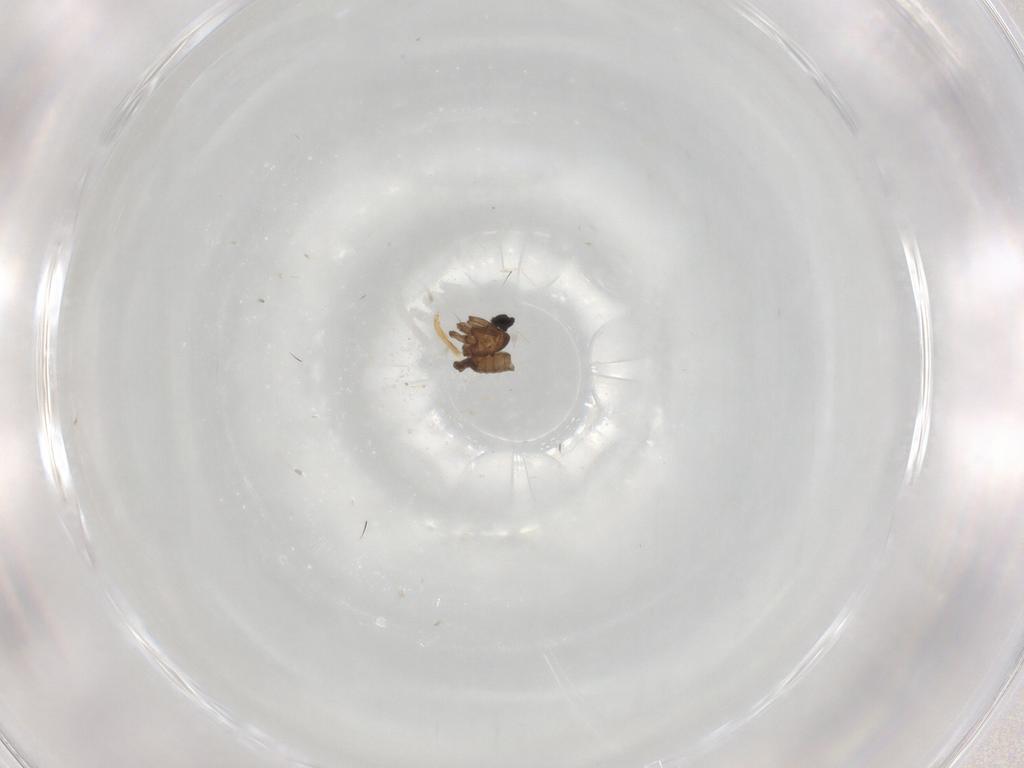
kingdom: Animalia
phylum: Arthropoda
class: Insecta
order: Diptera
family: Sciaridae
